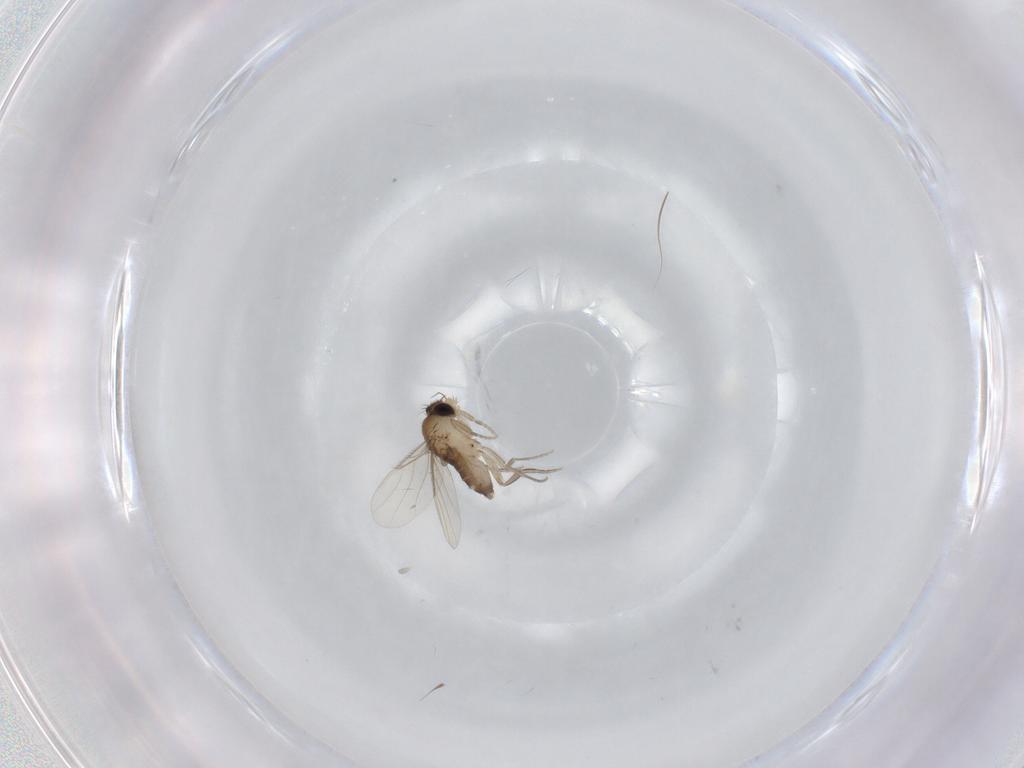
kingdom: Animalia
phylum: Arthropoda
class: Insecta
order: Diptera
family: Phoridae
